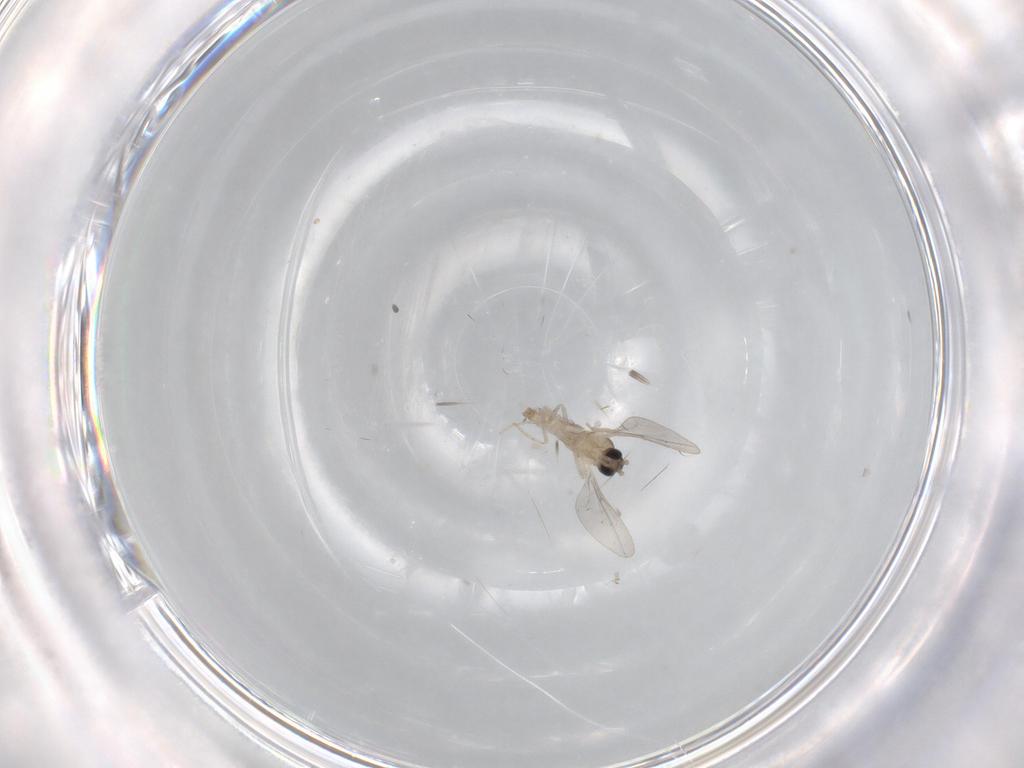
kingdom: Animalia
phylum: Arthropoda
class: Insecta
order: Diptera
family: Cecidomyiidae
